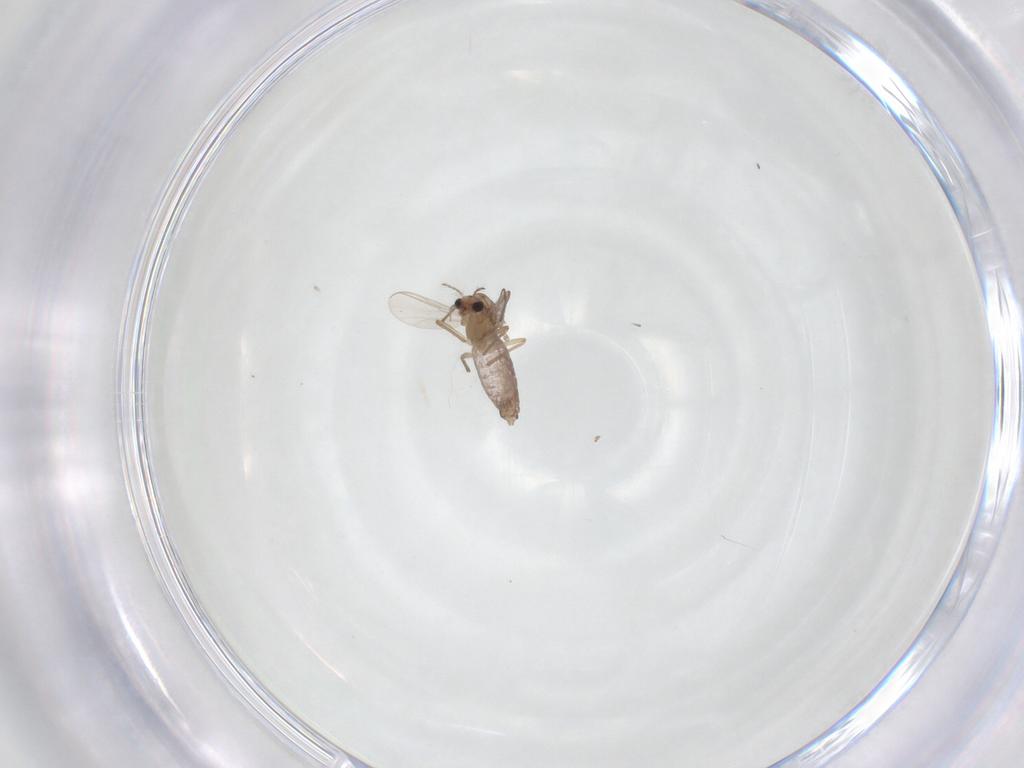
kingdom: Animalia
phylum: Arthropoda
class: Insecta
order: Diptera
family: Chironomidae
